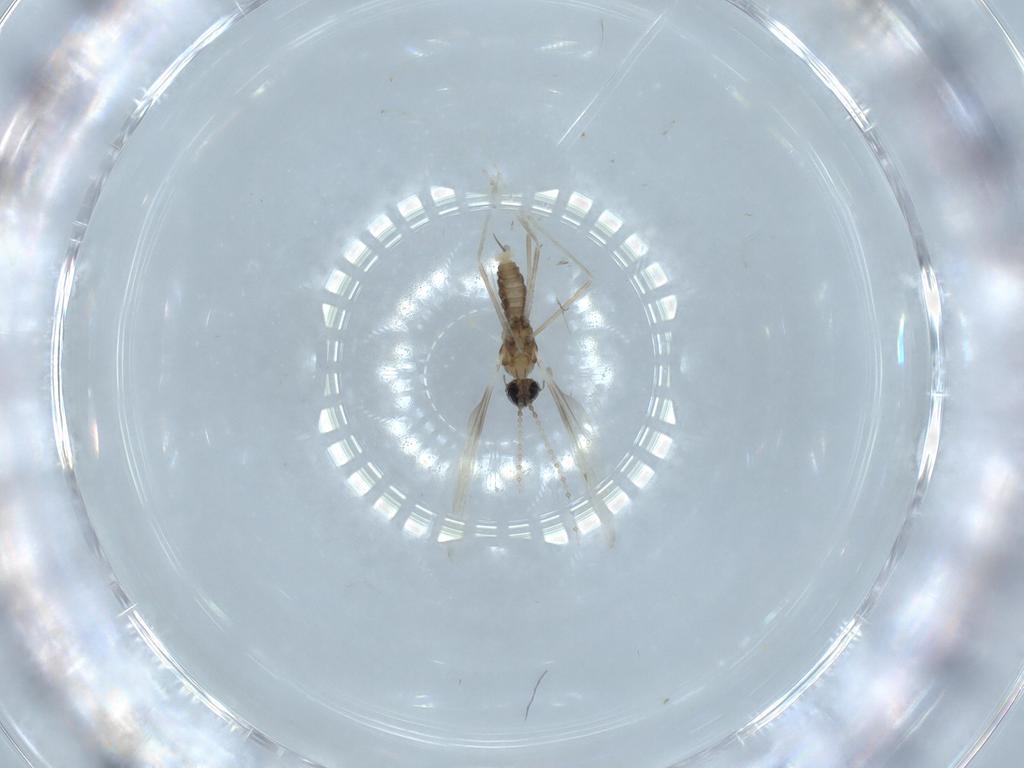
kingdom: Animalia
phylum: Arthropoda
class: Insecta
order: Diptera
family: Cecidomyiidae
